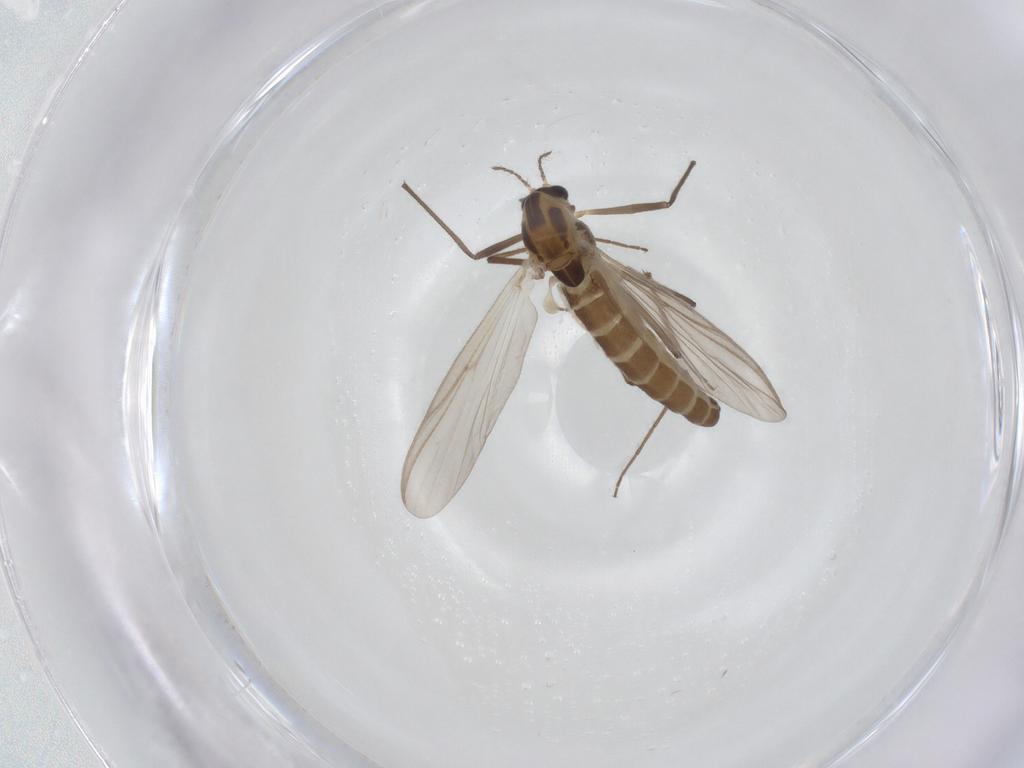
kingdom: Animalia
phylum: Arthropoda
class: Insecta
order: Diptera
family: Chironomidae
